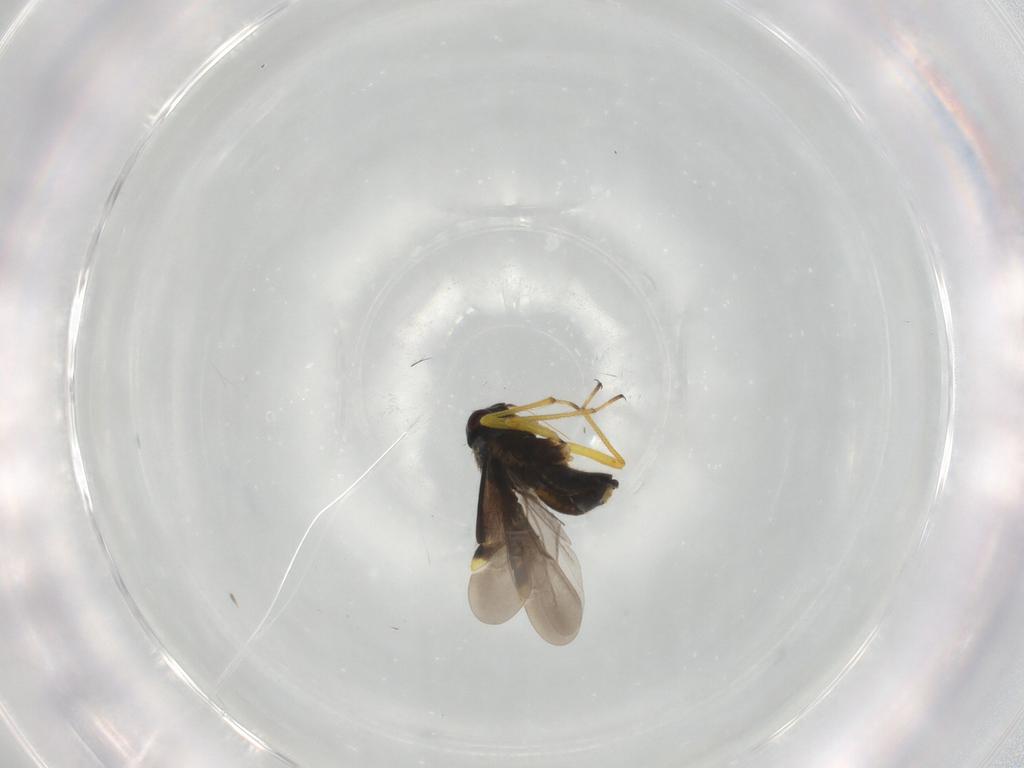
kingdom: Animalia
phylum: Arthropoda
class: Insecta
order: Hemiptera
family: Miridae
